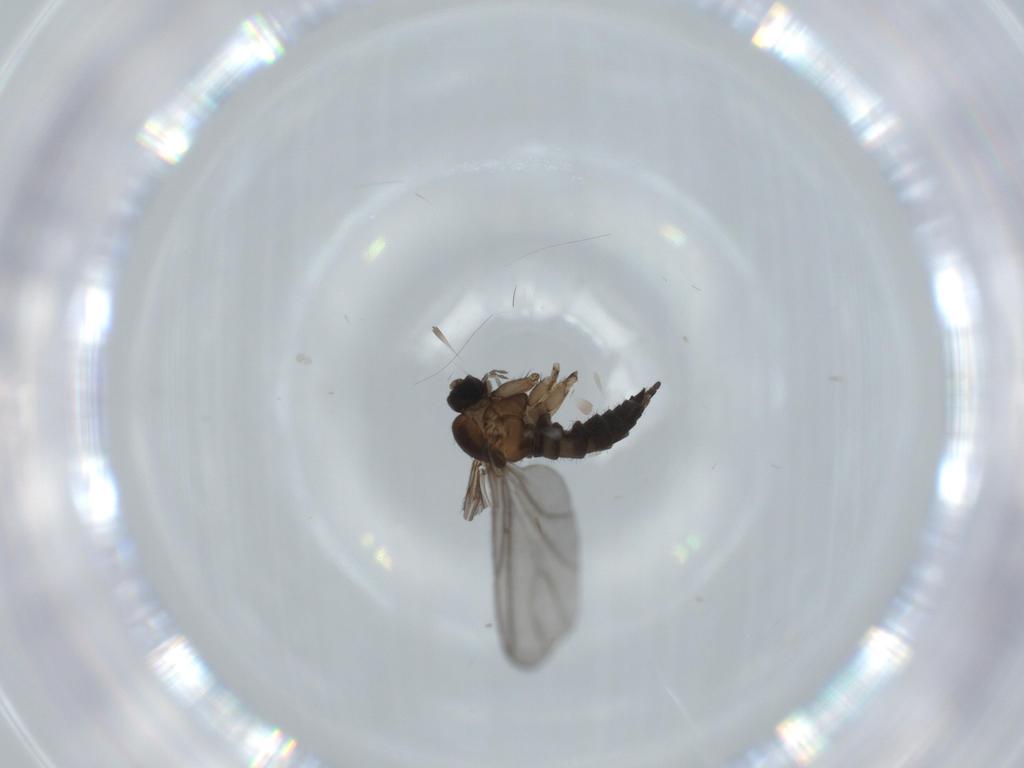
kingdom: Animalia
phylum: Arthropoda
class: Insecta
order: Diptera
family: Sciaridae
